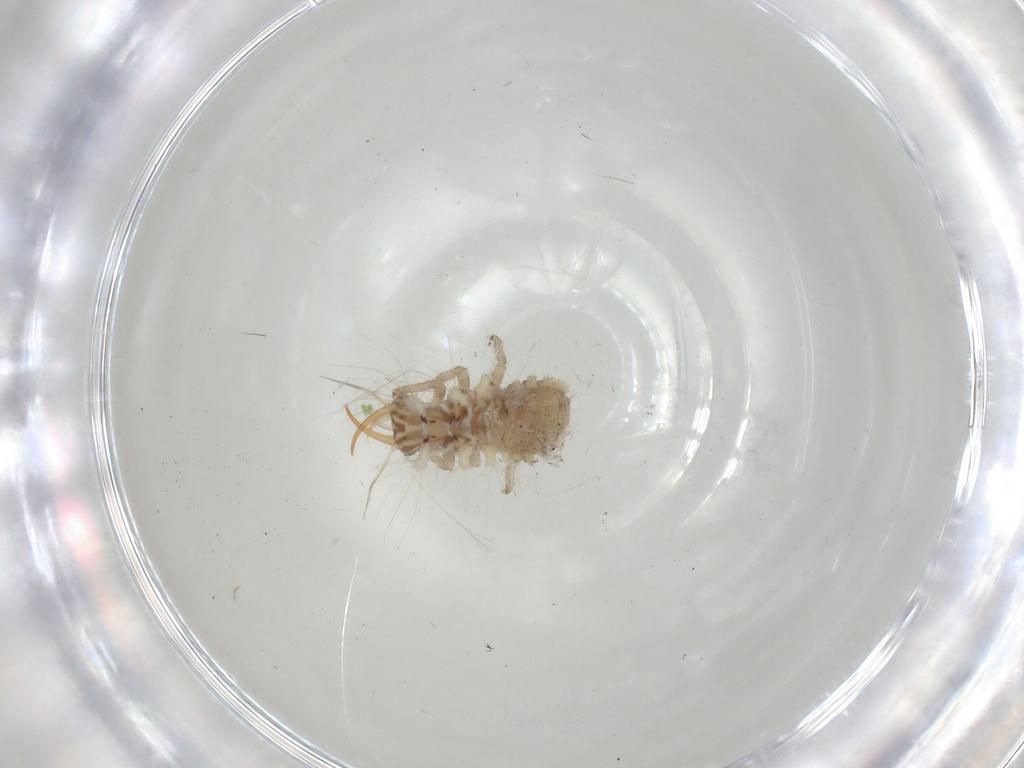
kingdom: Animalia
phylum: Arthropoda
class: Insecta
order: Neuroptera
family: Chrysopidae
